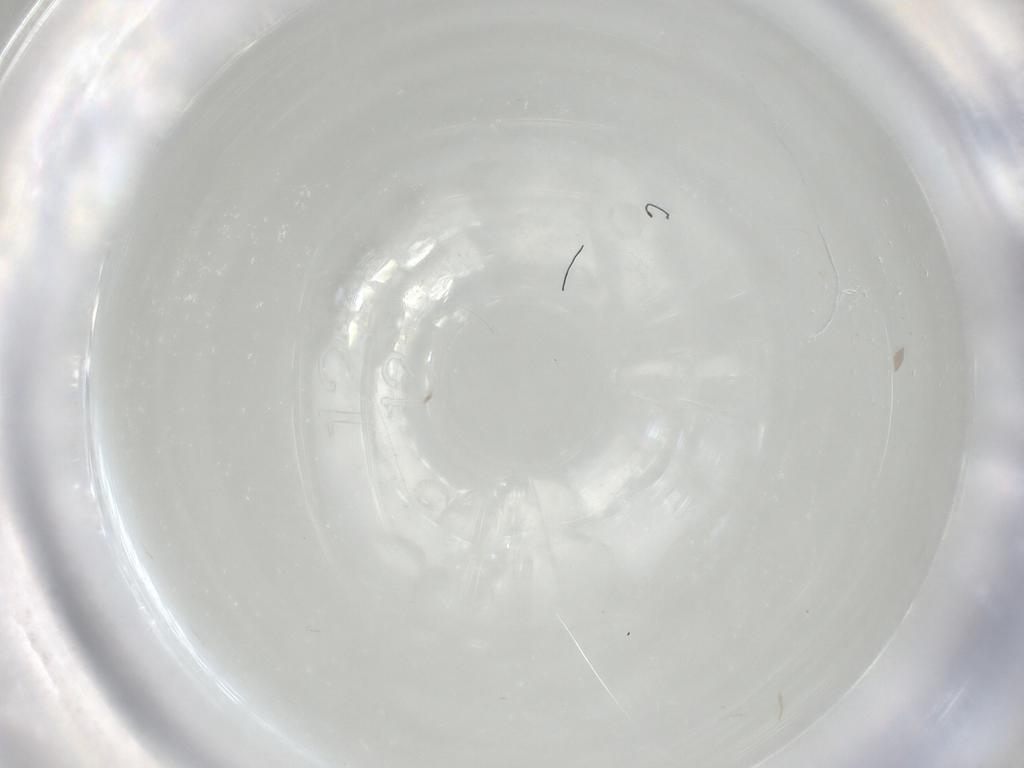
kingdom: Animalia
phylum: Arthropoda
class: Insecta
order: Diptera
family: Chironomidae
